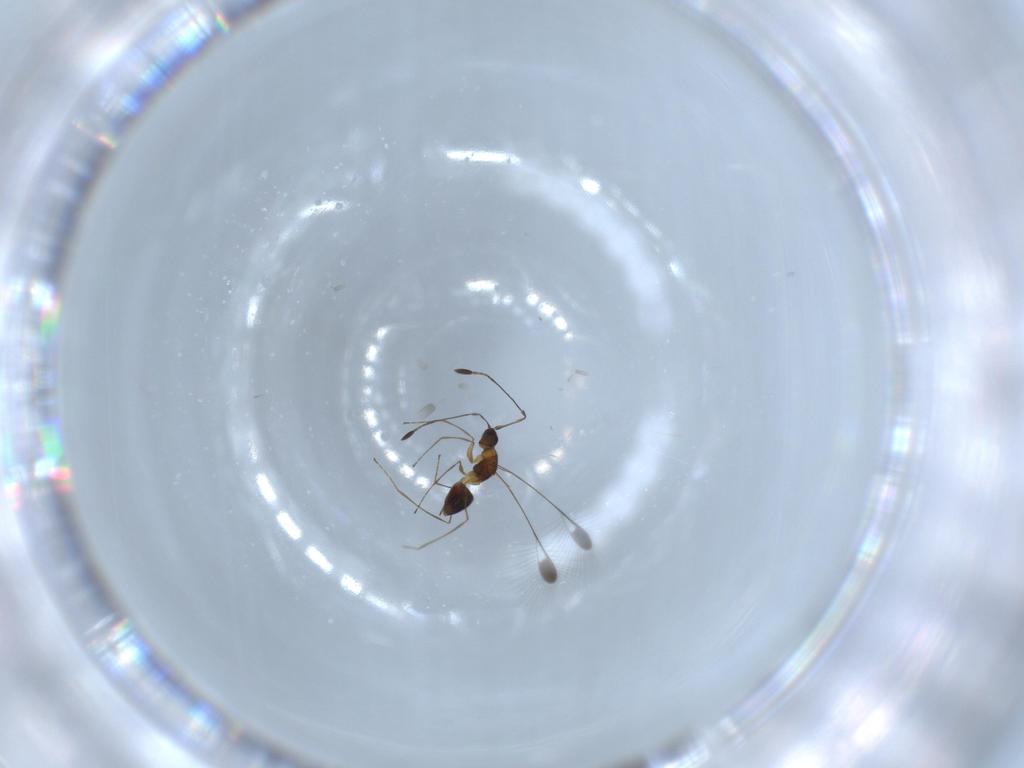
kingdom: Animalia
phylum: Arthropoda
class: Insecta
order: Hymenoptera
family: Mymaridae
